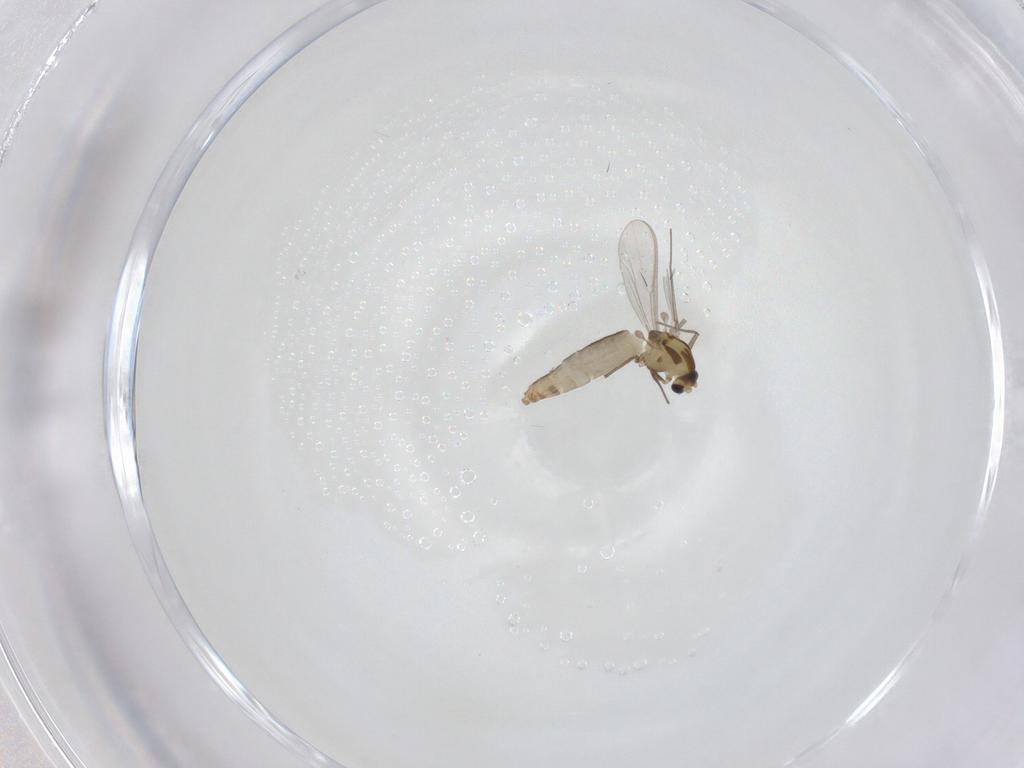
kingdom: Animalia
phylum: Arthropoda
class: Insecta
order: Diptera
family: Chironomidae
